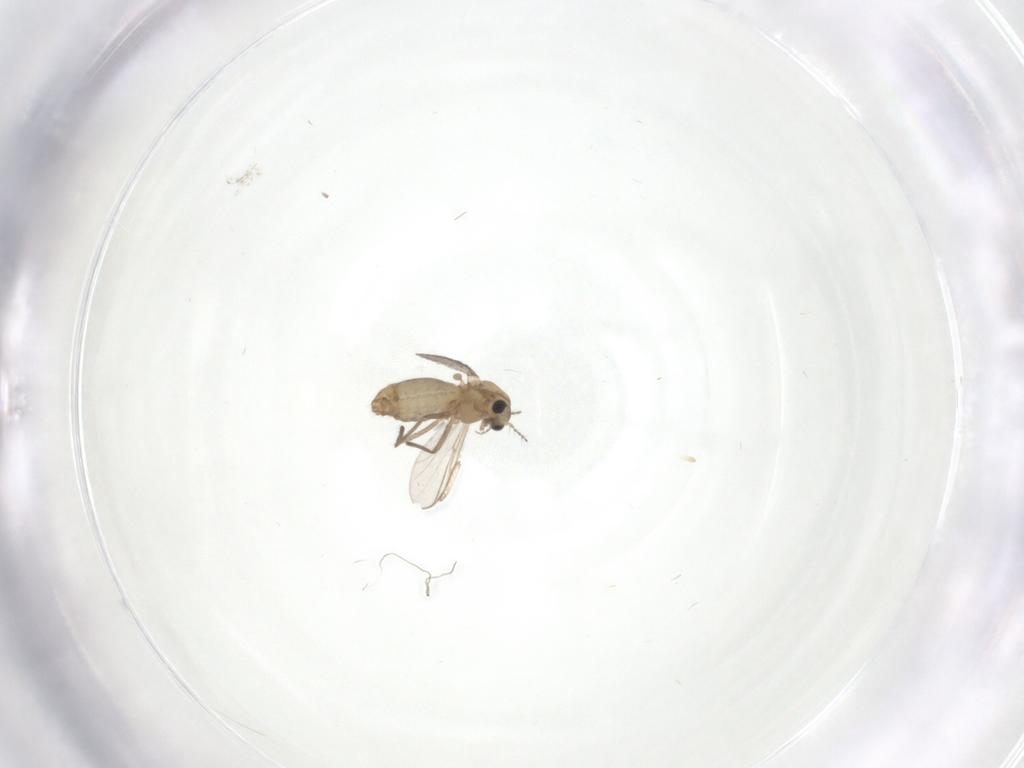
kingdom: Animalia
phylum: Arthropoda
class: Insecta
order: Diptera
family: Chironomidae
